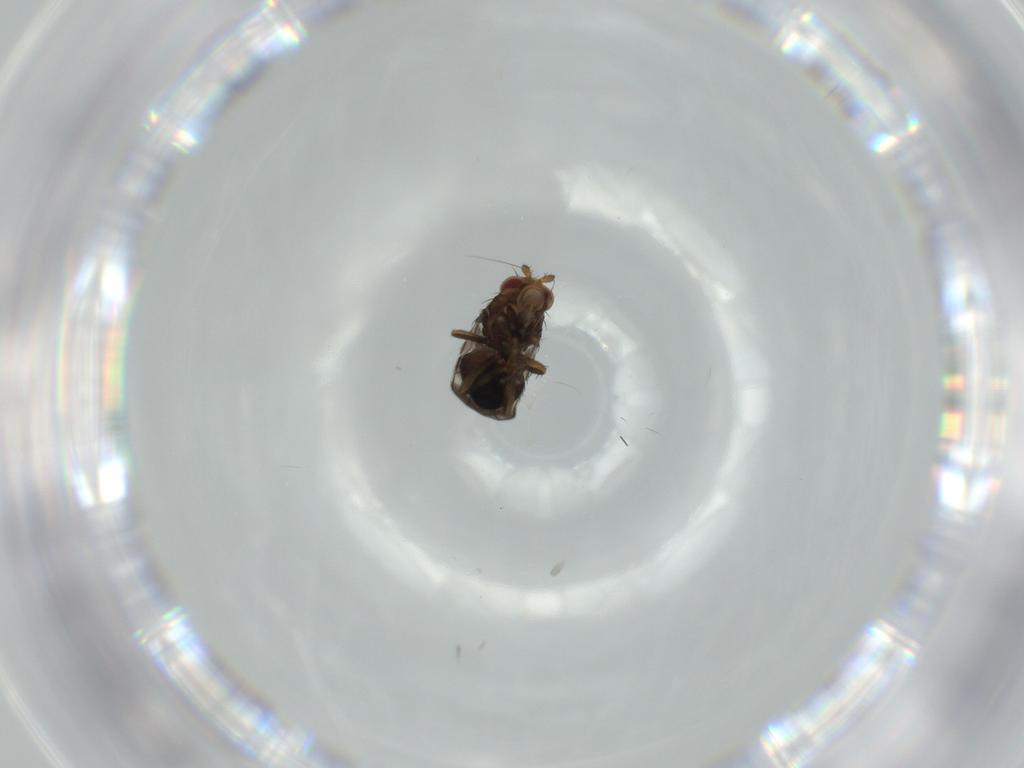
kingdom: Animalia
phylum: Arthropoda
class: Insecta
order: Diptera
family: Sphaeroceridae
